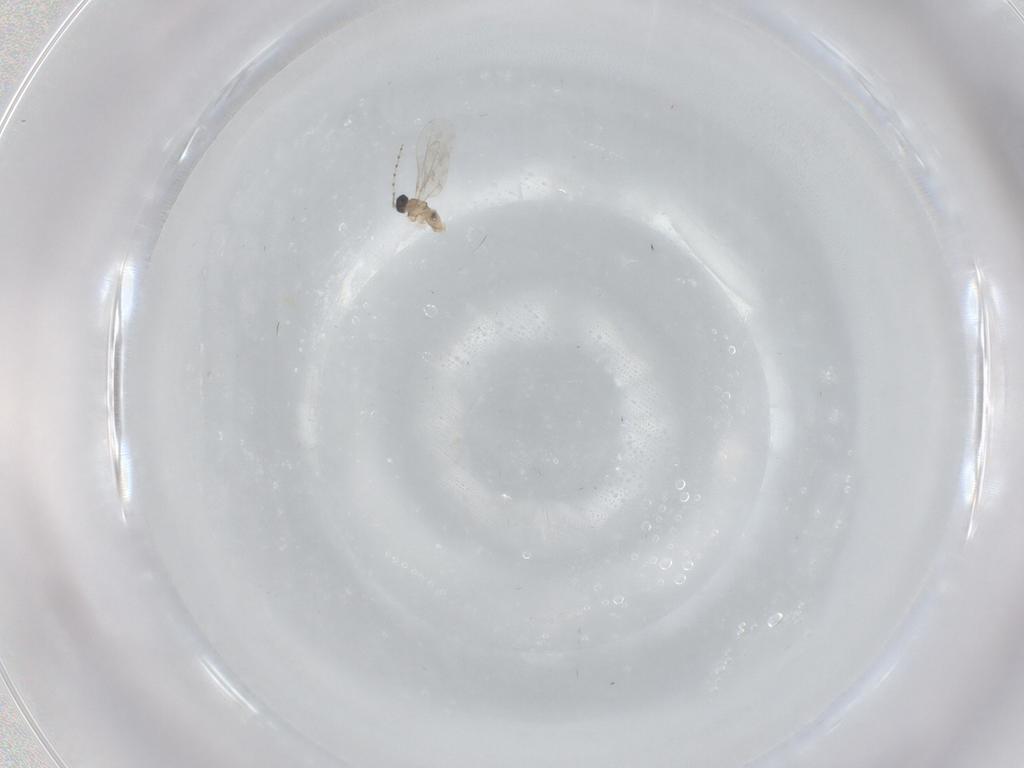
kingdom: Animalia
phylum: Arthropoda
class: Insecta
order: Diptera
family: Cecidomyiidae
